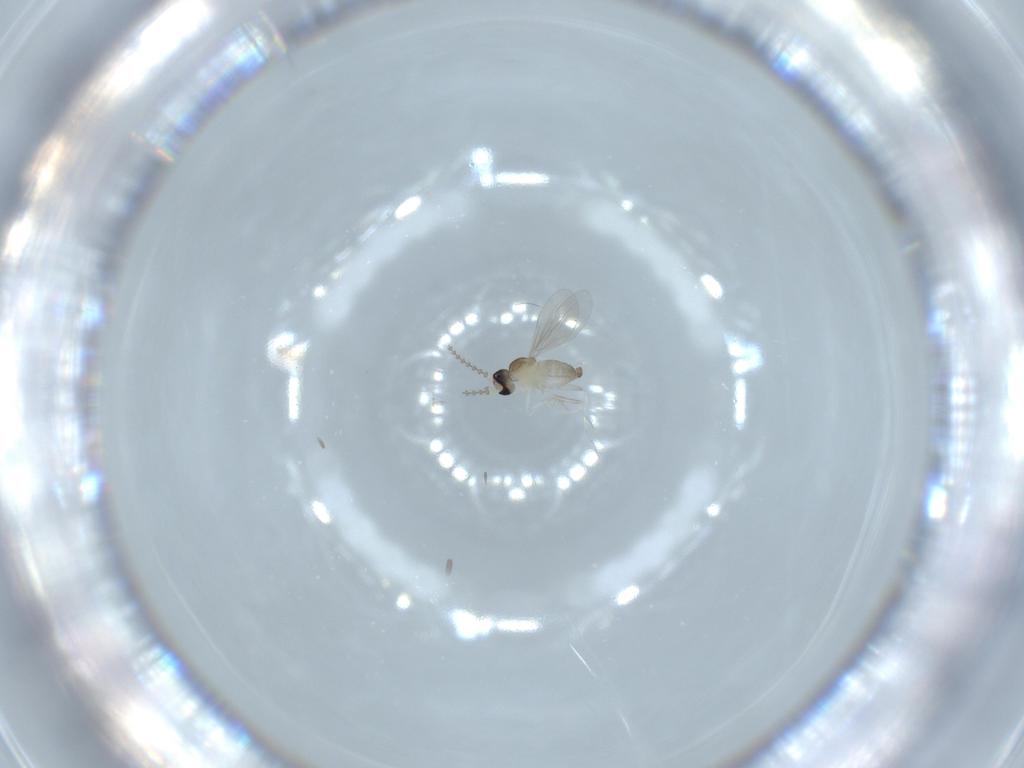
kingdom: Animalia
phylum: Arthropoda
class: Insecta
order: Diptera
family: Cecidomyiidae
